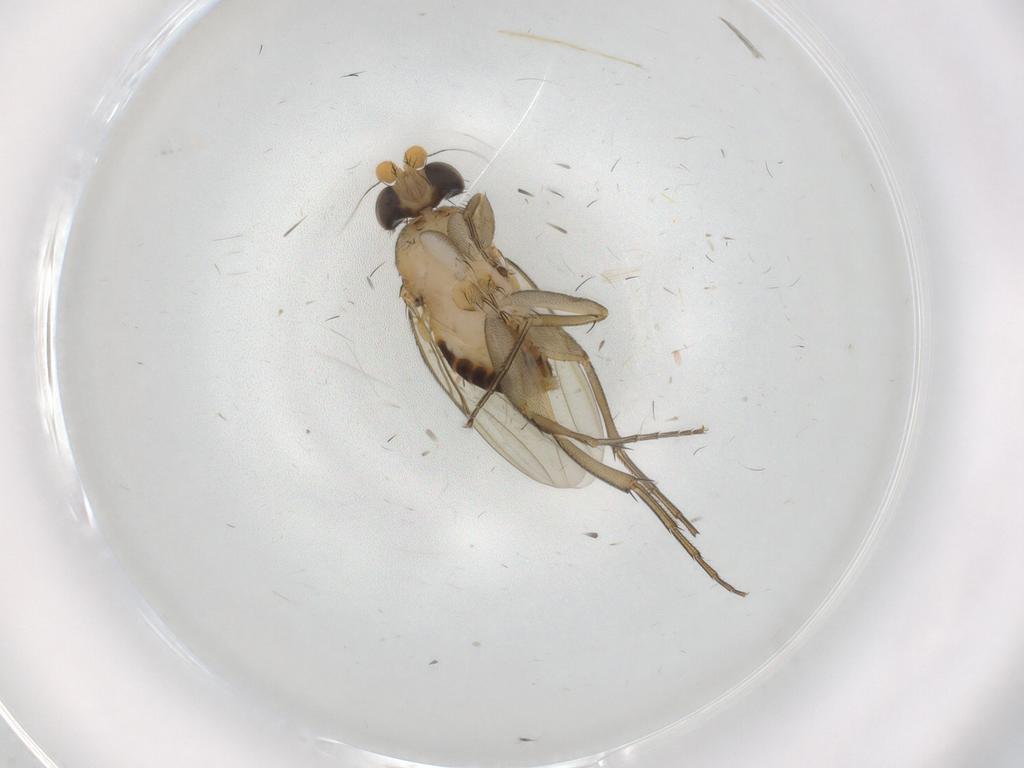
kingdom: Animalia
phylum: Arthropoda
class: Insecta
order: Diptera
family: Phoridae
